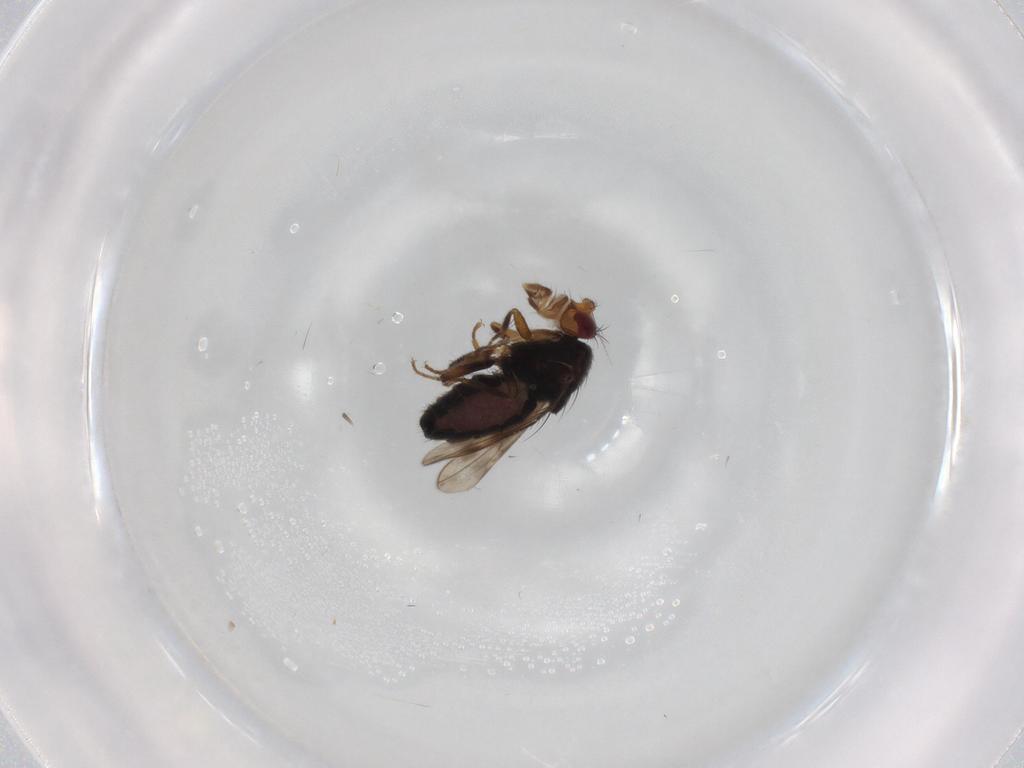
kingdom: Animalia
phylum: Arthropoda
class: Insecta
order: Diptera
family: Sphaeroceridae
